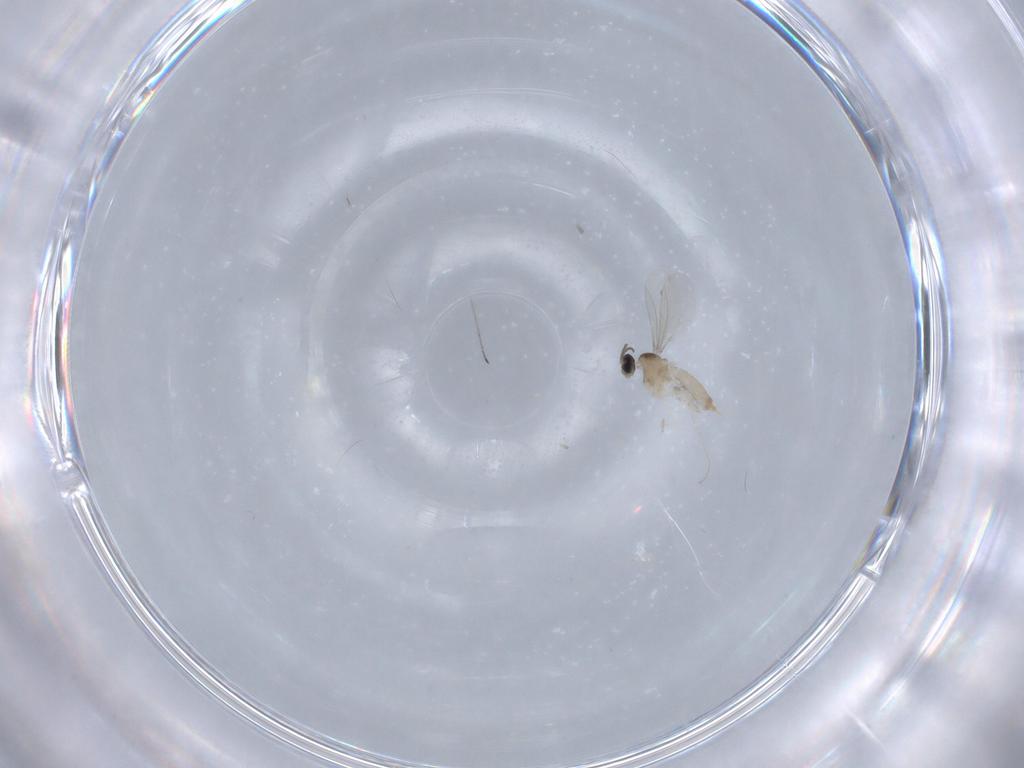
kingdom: Animalia
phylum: Arthropoda
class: Insecta
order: Diptera
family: Cecidomyiidae
